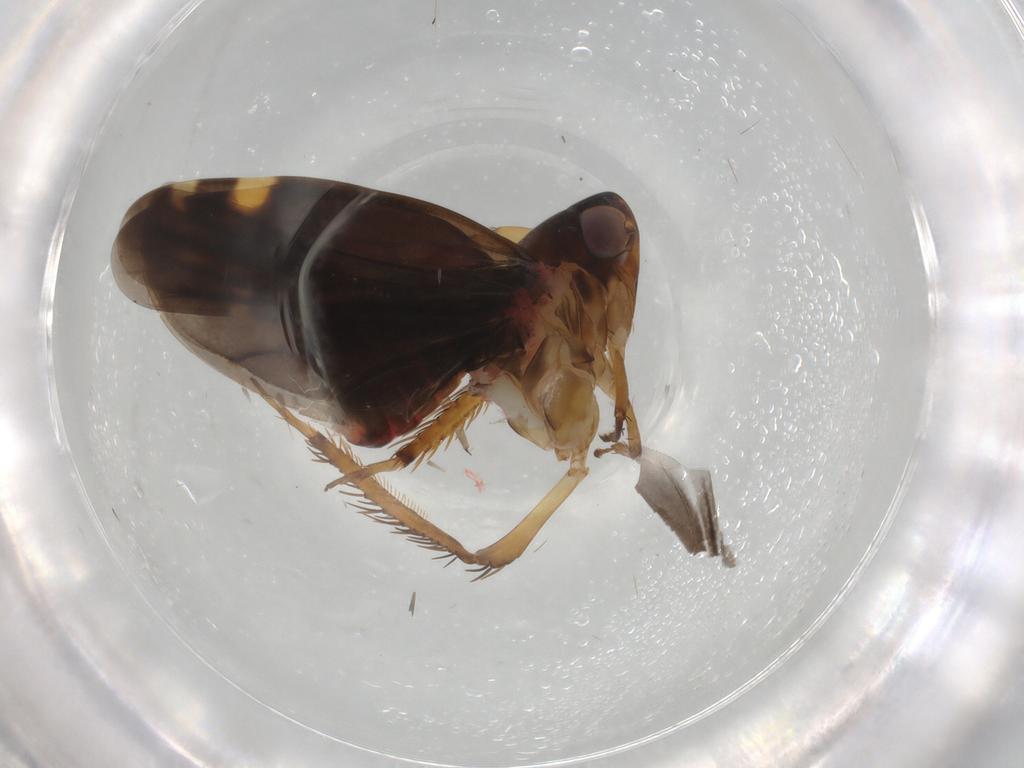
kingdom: Animalia
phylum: Arthropoda
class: Insecta
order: Hemiptera
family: Cicadellidae
